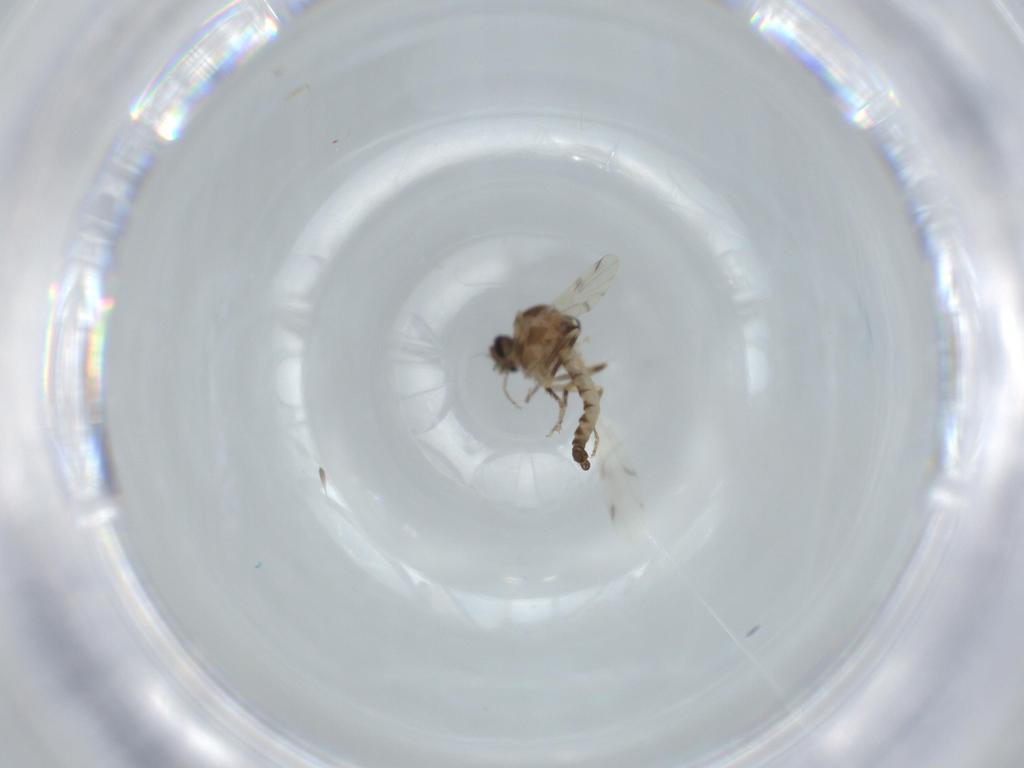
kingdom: Animalia
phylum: Arthropoda
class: Insecta
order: Diptera
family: Ceratopogonidae
